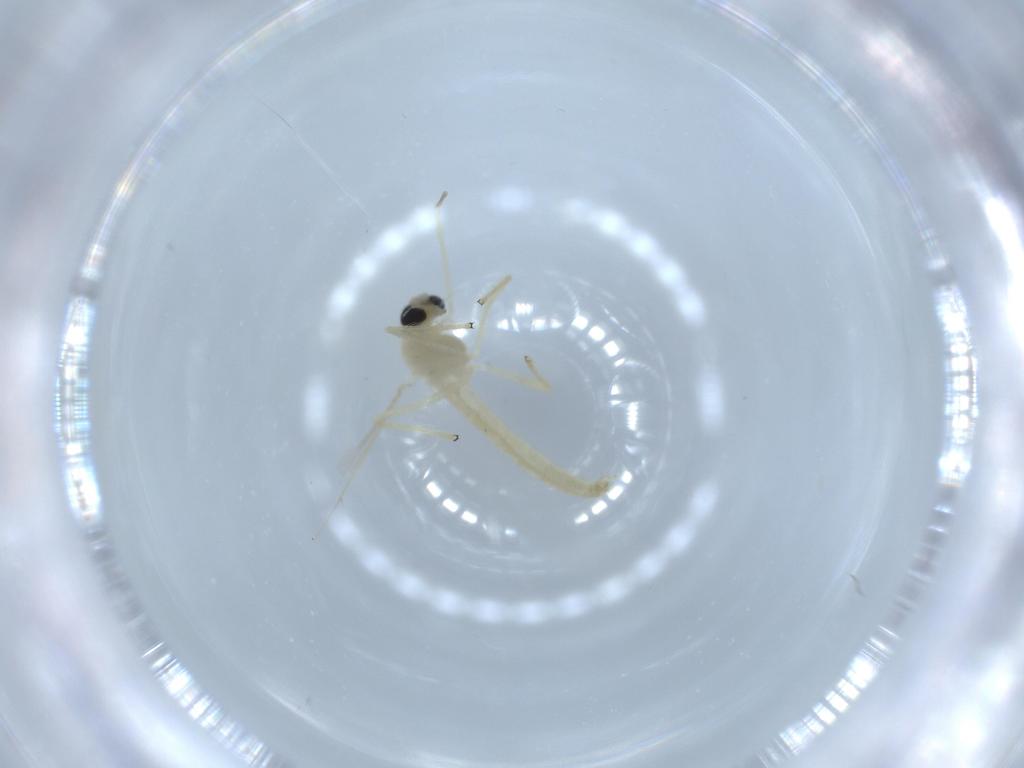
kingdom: Animalia
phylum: Arthropoda
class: Insecta
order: Diptera
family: Chironomidae
